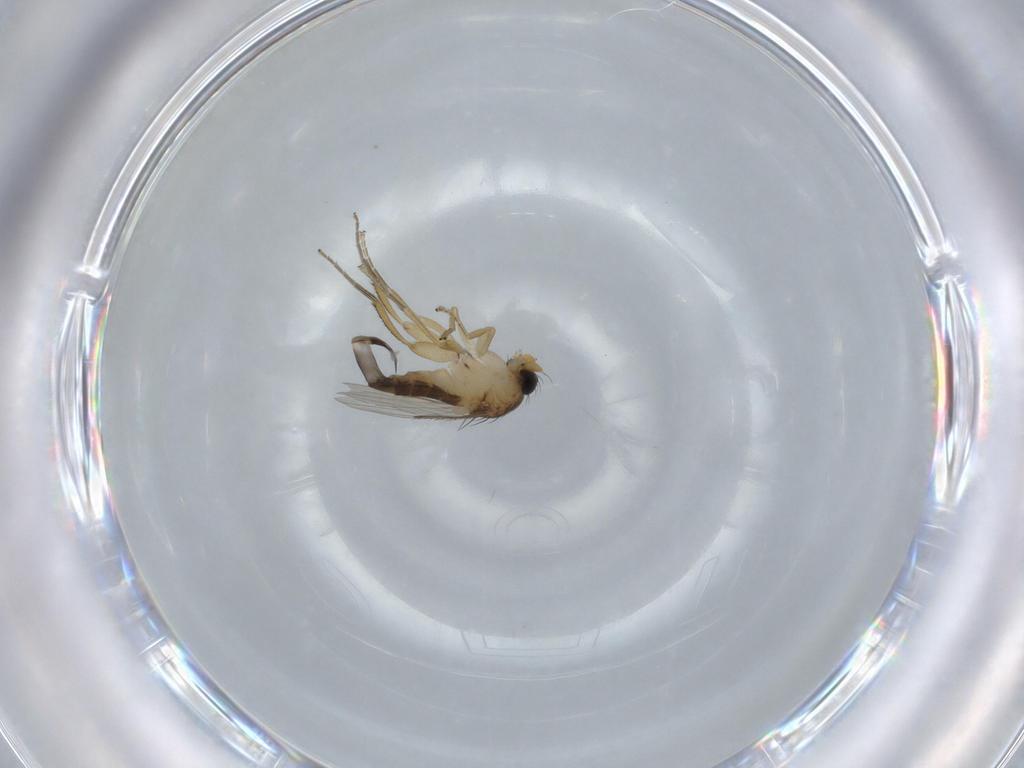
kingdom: Animalia
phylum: Arthropoda
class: Insecta
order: Diptera
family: Phoridae
